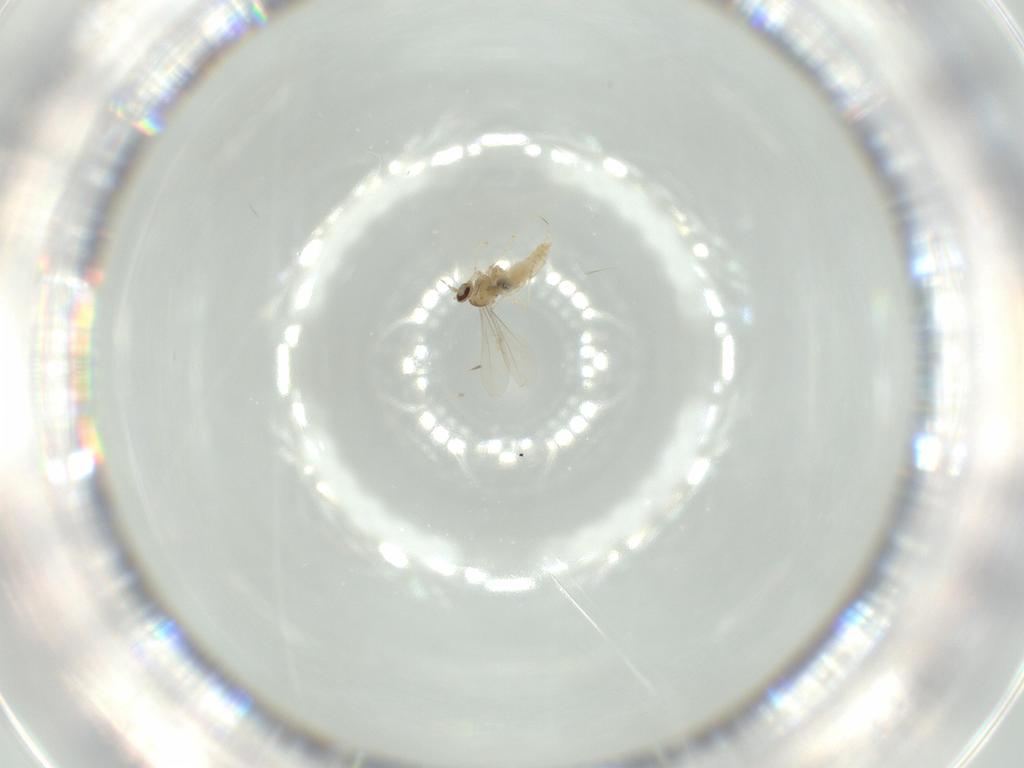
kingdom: Animalia
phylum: Arthropoda
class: Insecta
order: Diptera
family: Cecidomyiidae
